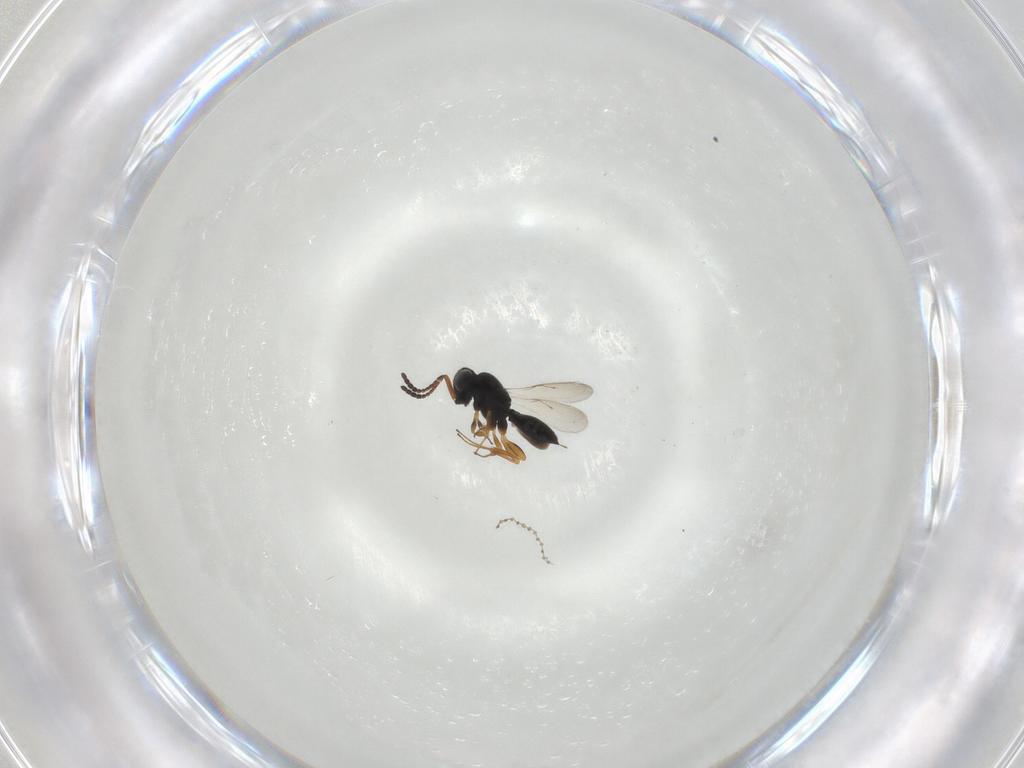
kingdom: Animalia
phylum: Arthropoda
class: Insecta
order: Hymenoptera
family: Scelionidae
